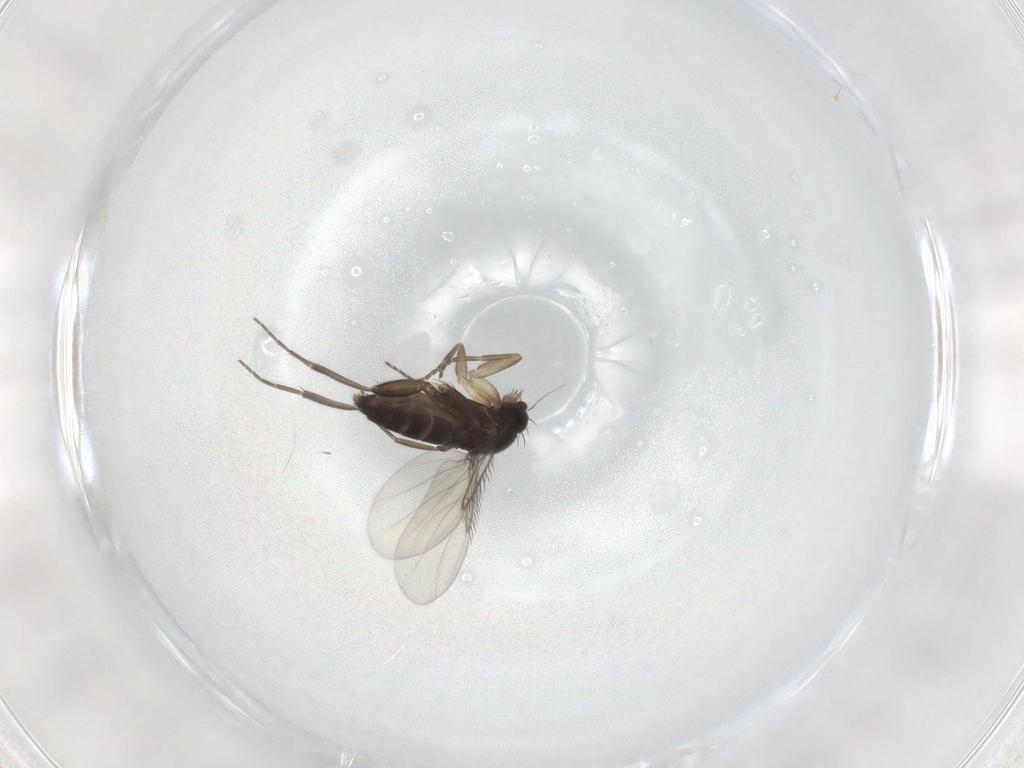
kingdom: Animalia
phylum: Arthropoda
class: Insecta
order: Diptera
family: Phoridae
